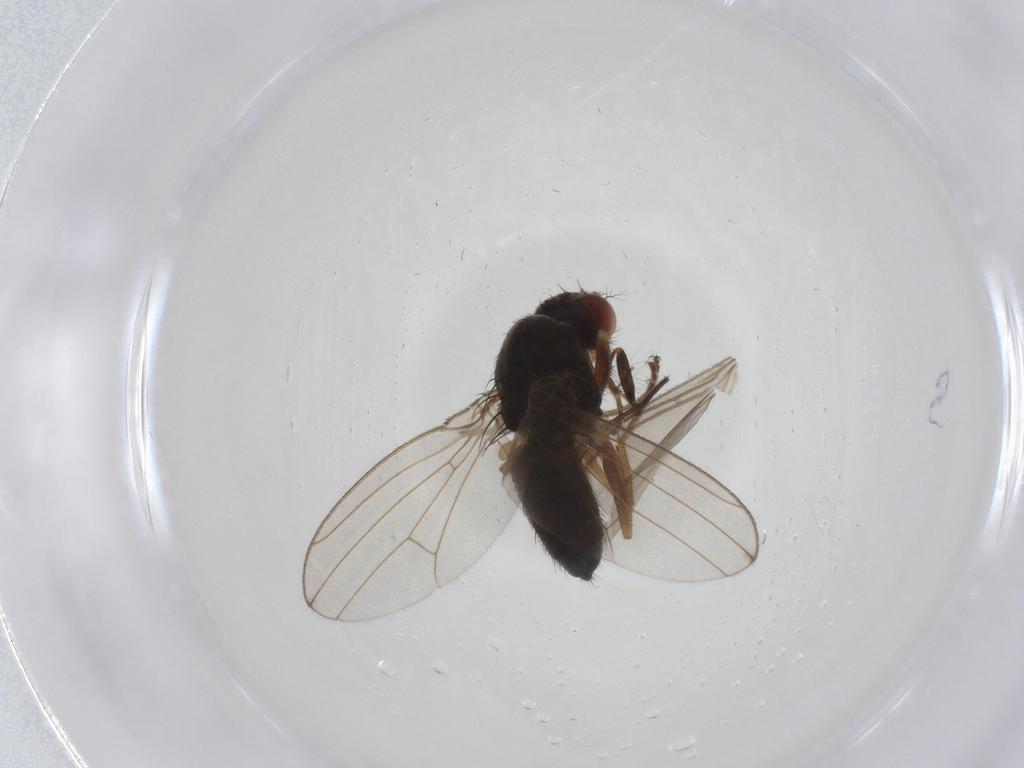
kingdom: Animalia
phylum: Arthropoda
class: Insecta
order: Diptera
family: Drosophilidae
